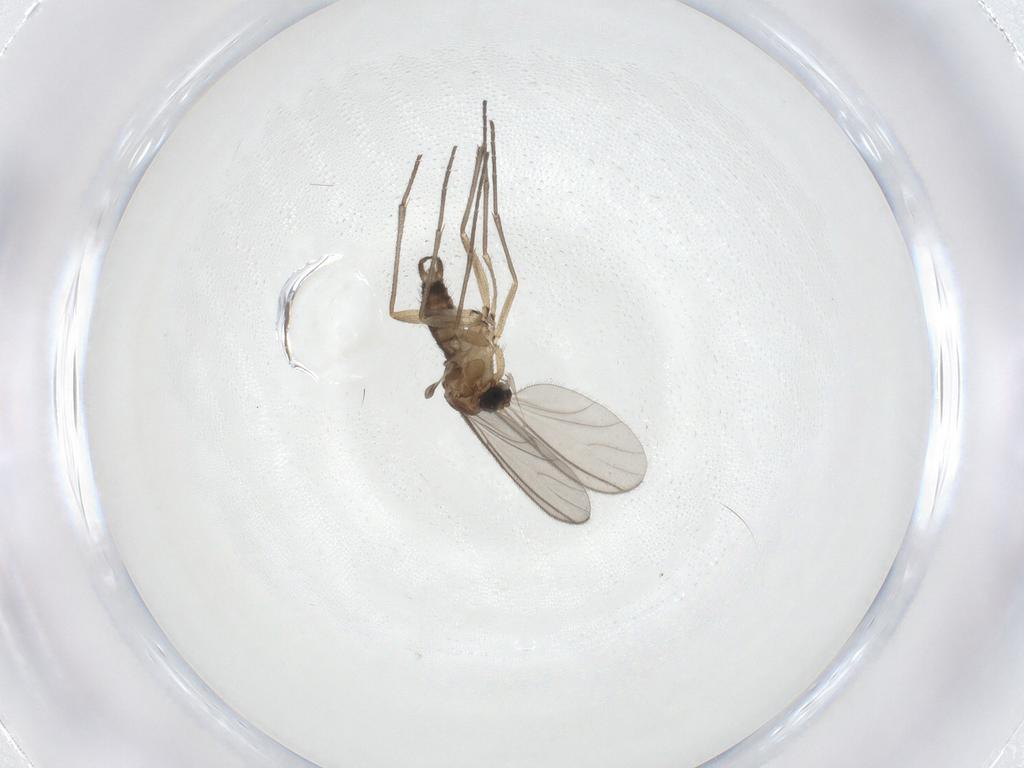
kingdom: Animalia
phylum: Arthropoda
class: Insecta
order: Diptera
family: Sciaridae
